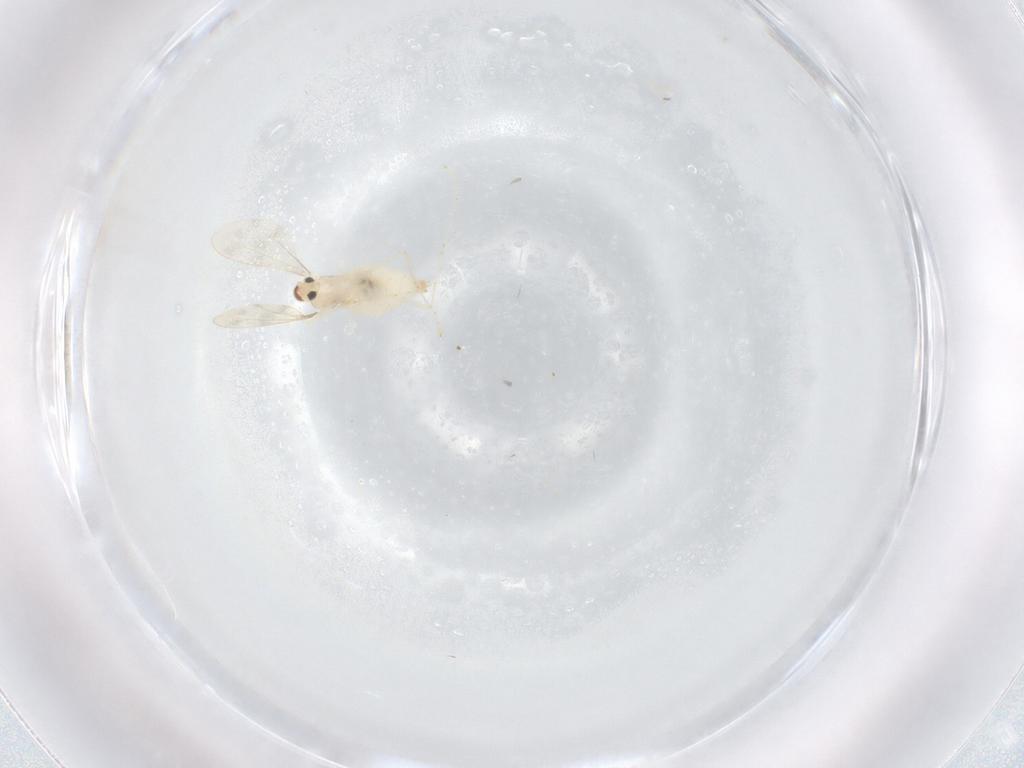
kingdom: Animalia
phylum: Arthropoda
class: Insecta
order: Diptera
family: Cecidomyiidae
